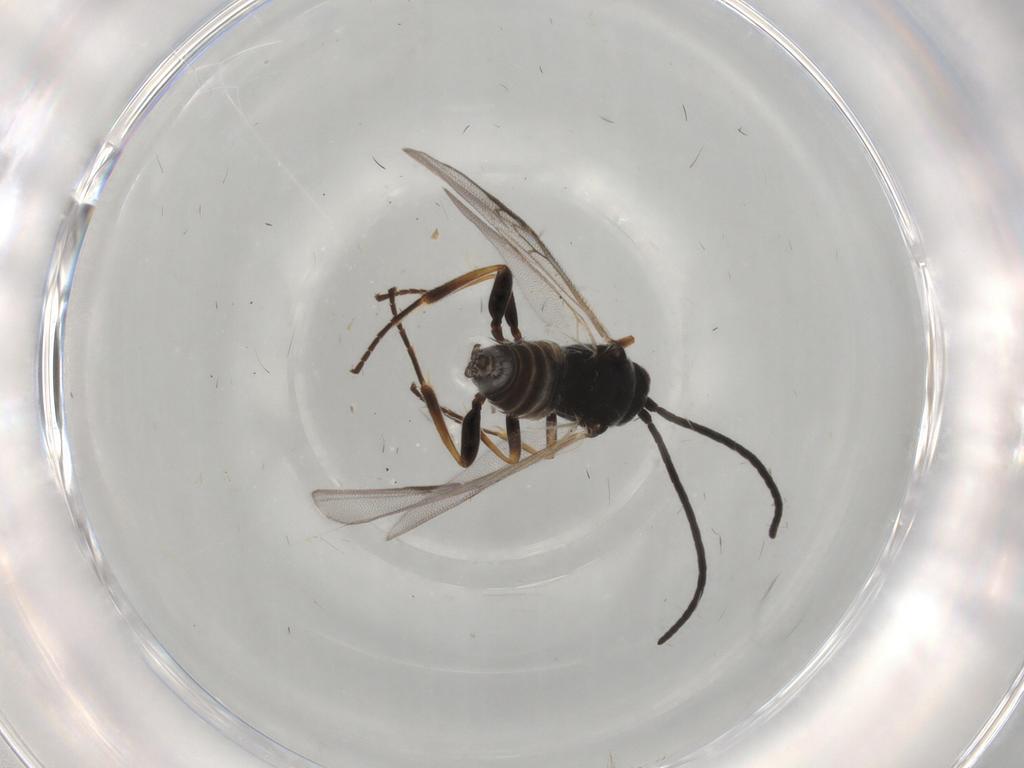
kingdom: Animalia
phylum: Arthropoda
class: Insecta
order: Hymenoptera
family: Braconidae
